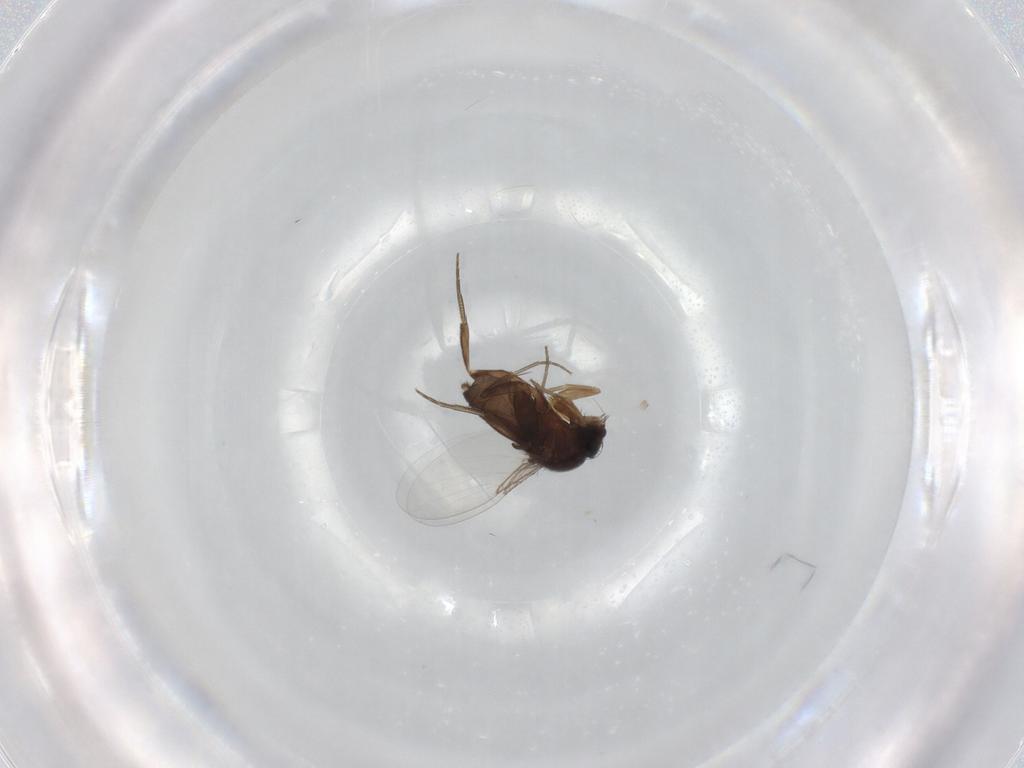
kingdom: Animalia
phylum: Arthropoda
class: Insecta
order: Diptera
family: Phoridae
